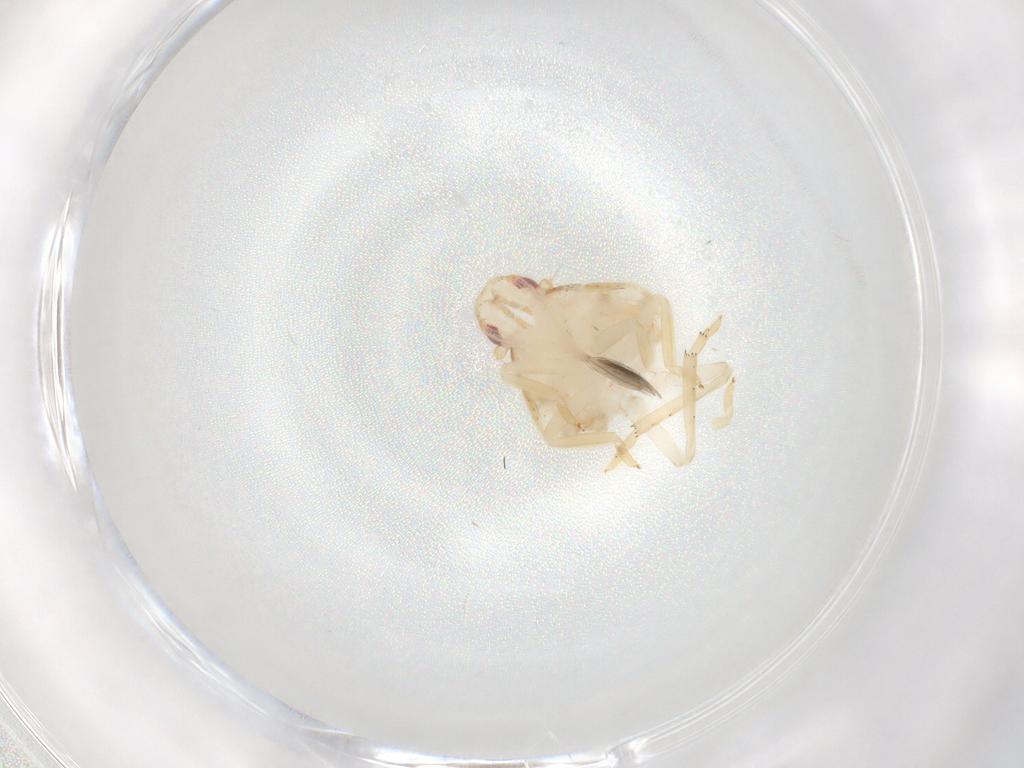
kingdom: Animalia
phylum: Arthropoda
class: Insecta
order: Hemiptera
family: Flatidae
